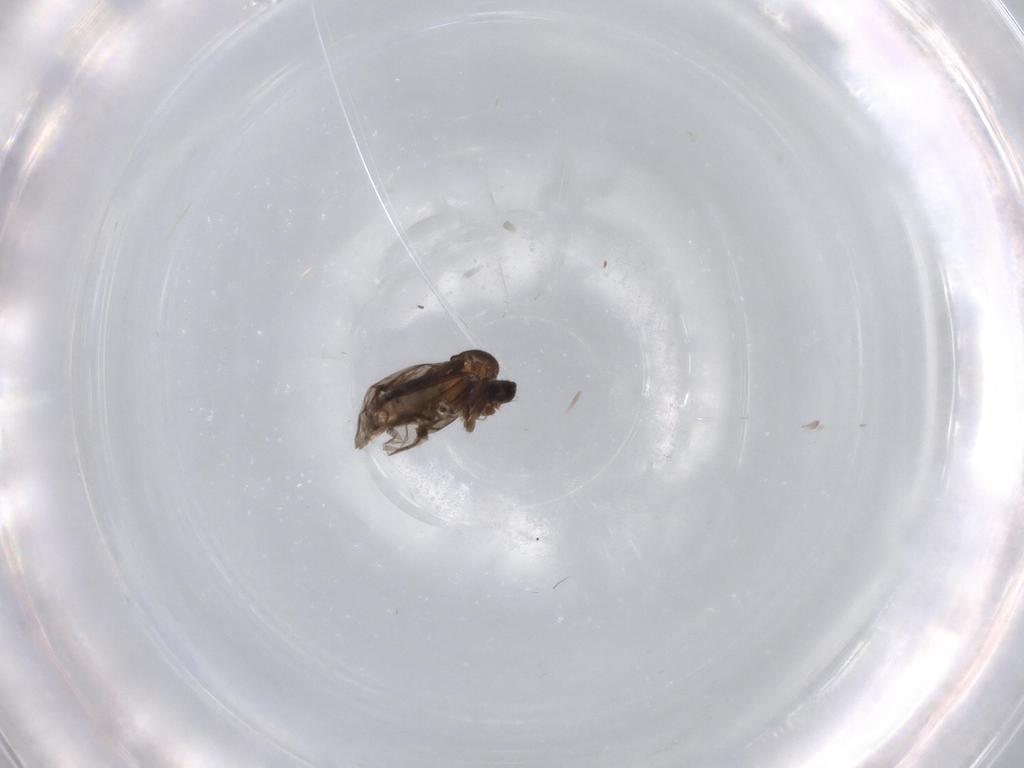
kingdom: Animalia
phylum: Arthropoda
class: Insecta
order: Diptera
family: Phoridae
